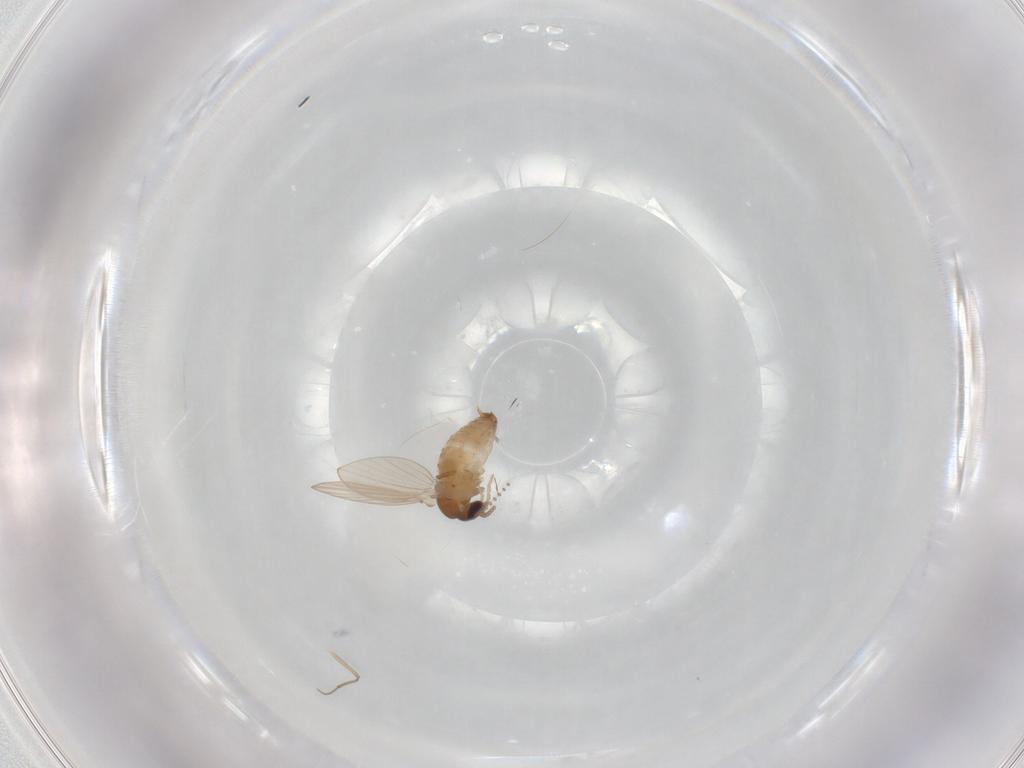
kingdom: Animalia
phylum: Arthropoda
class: Insecta
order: Diptera
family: Psychodidae
